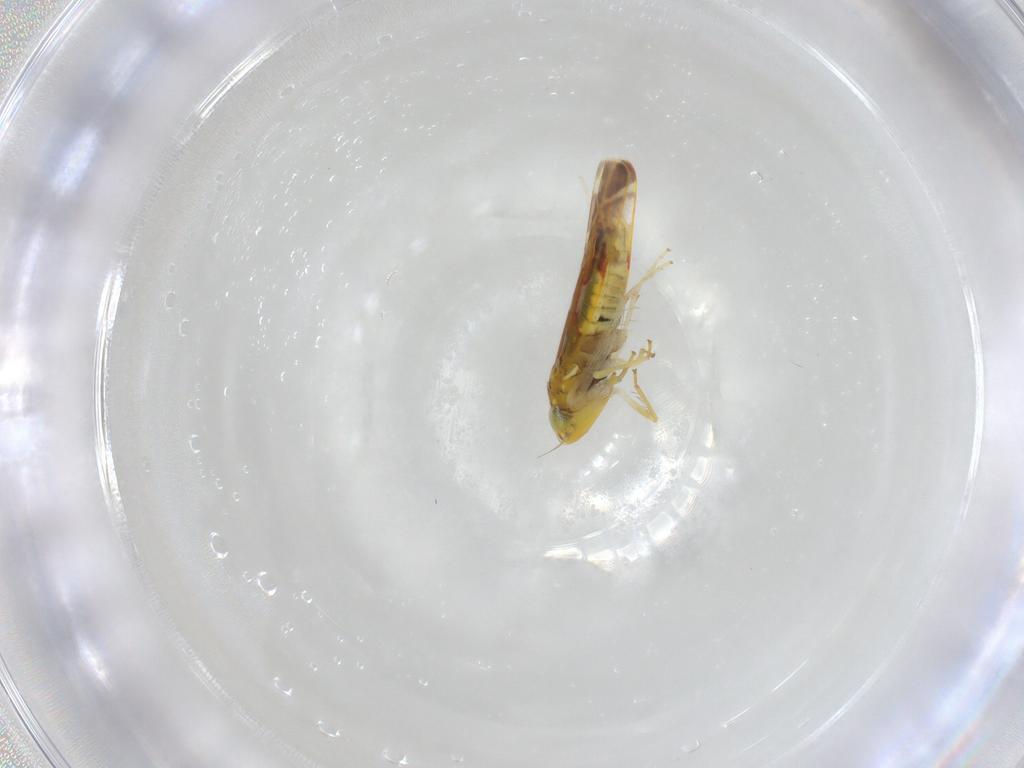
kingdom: Animalia
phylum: Arthropoda
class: Insecta
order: Hemiptera
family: Cicadellidae
